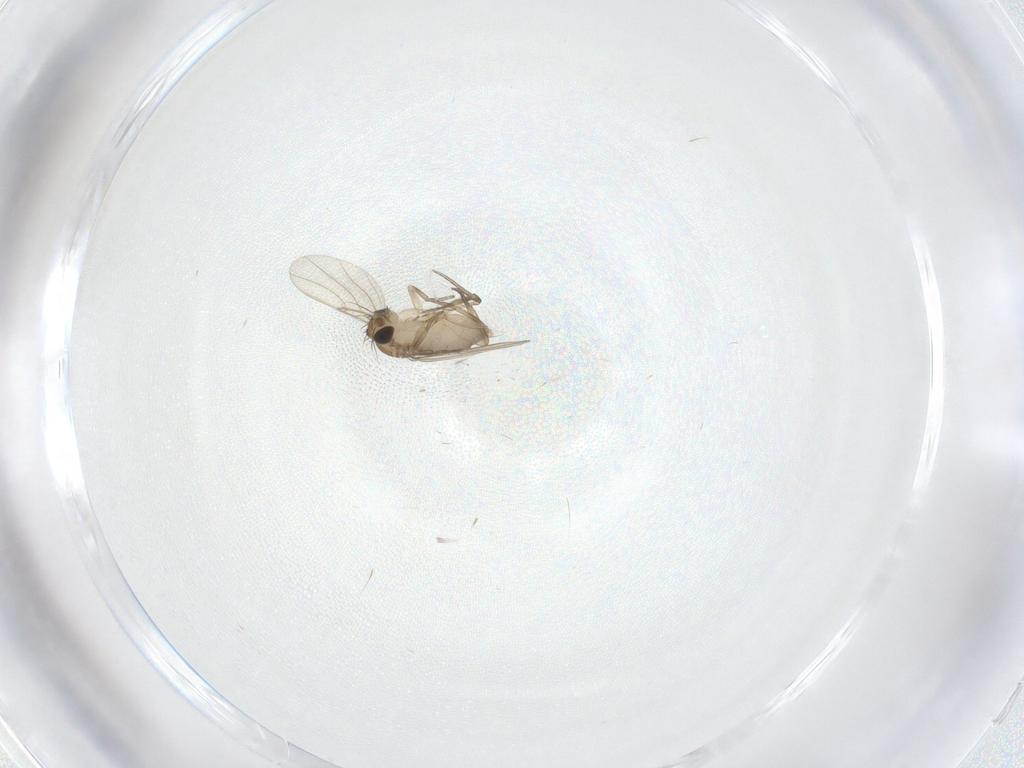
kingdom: Animalia
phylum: Arthropoda
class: Insecta
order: Diptera
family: Phoridae
